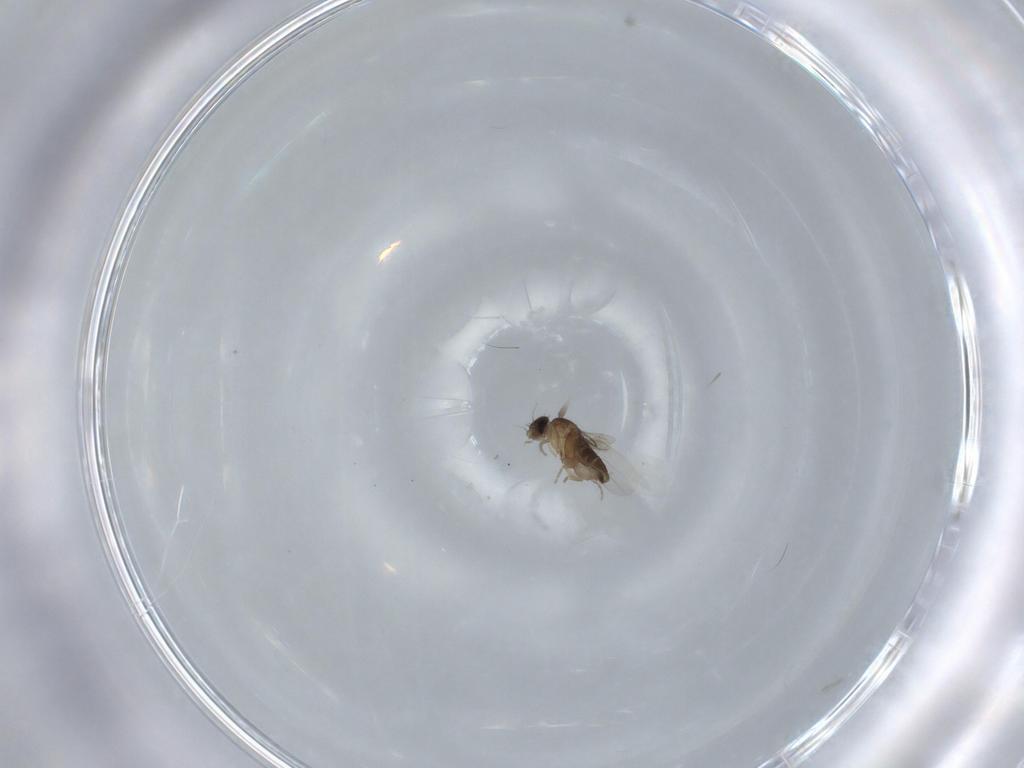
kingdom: Animalia
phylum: Arthropoda
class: Insecta
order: Diptera
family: Phoridae
